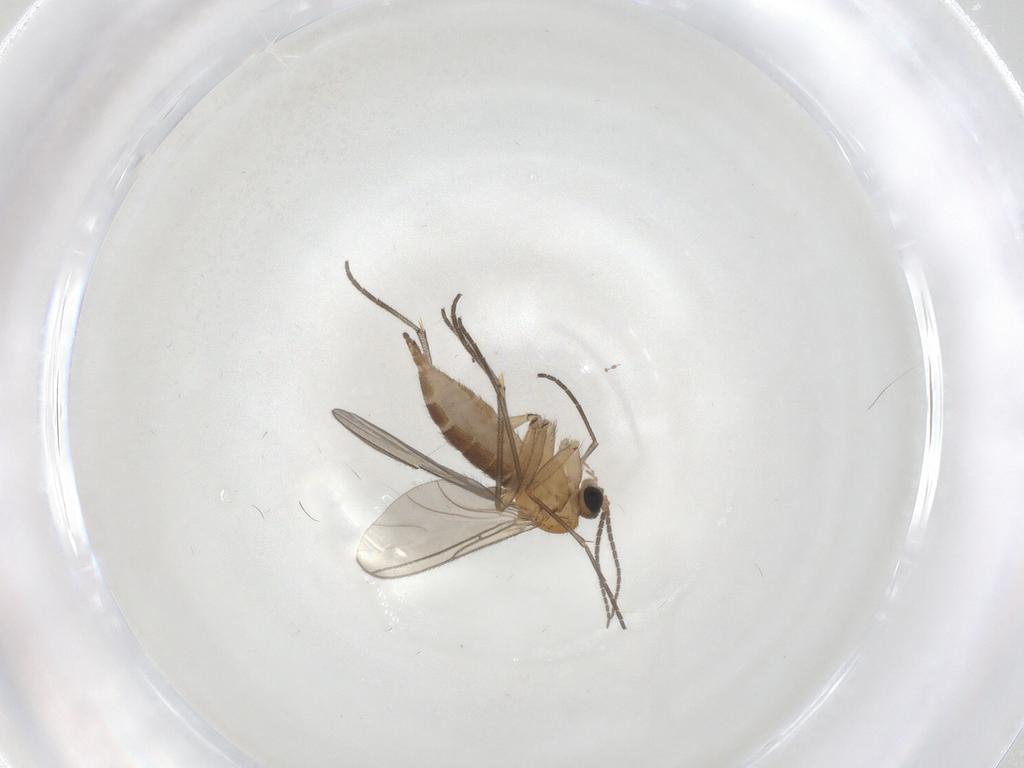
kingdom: Animalia
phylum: Arthropoda
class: Insecta
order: Diptera
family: Sciaridae
